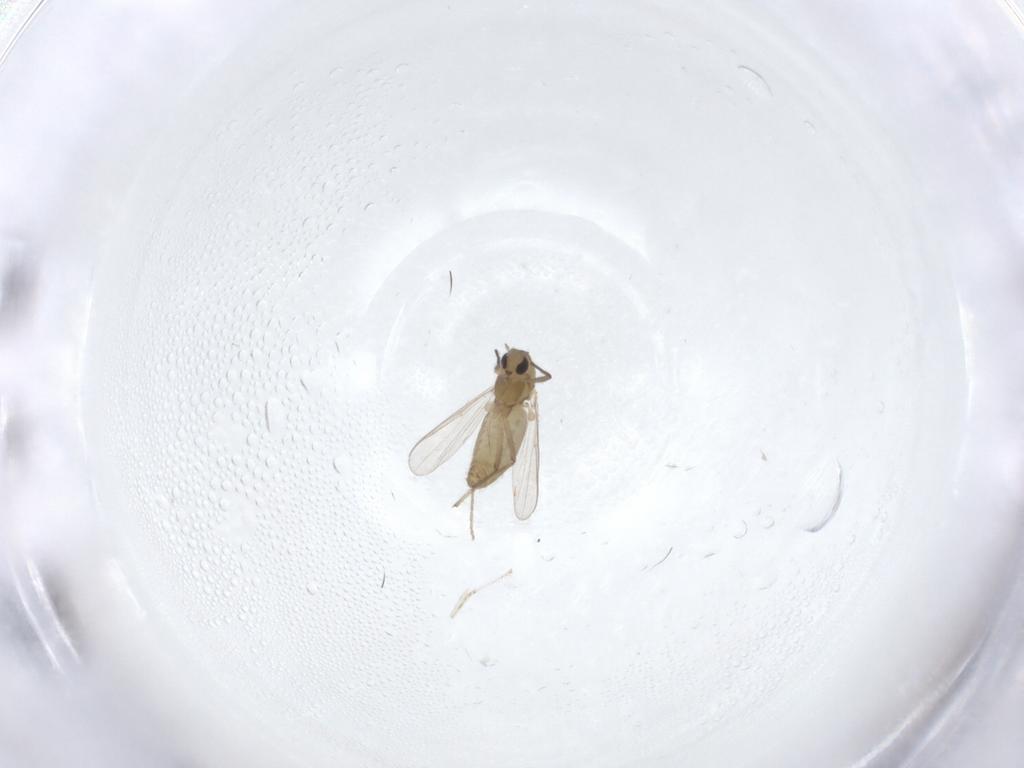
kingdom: Animalia
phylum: Arthropoda
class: Insecta
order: Diptera
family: Chironomidae
